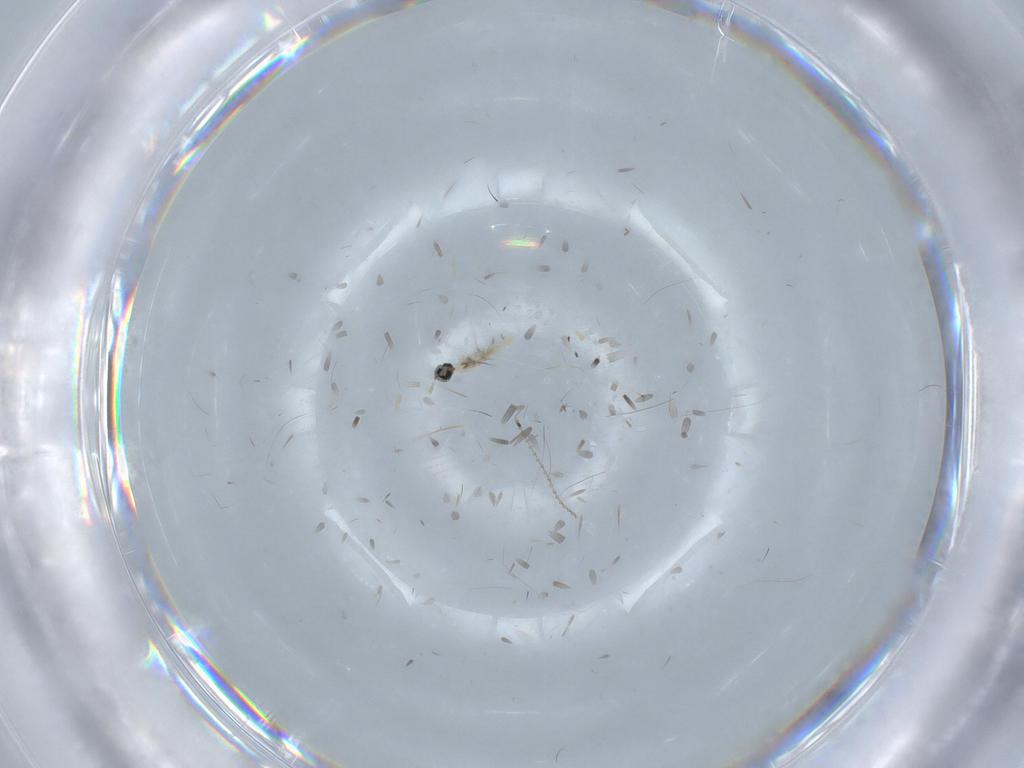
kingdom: Animalia
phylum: Arthropoda
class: Insecta
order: Diptera
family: Cecidomyiidae
